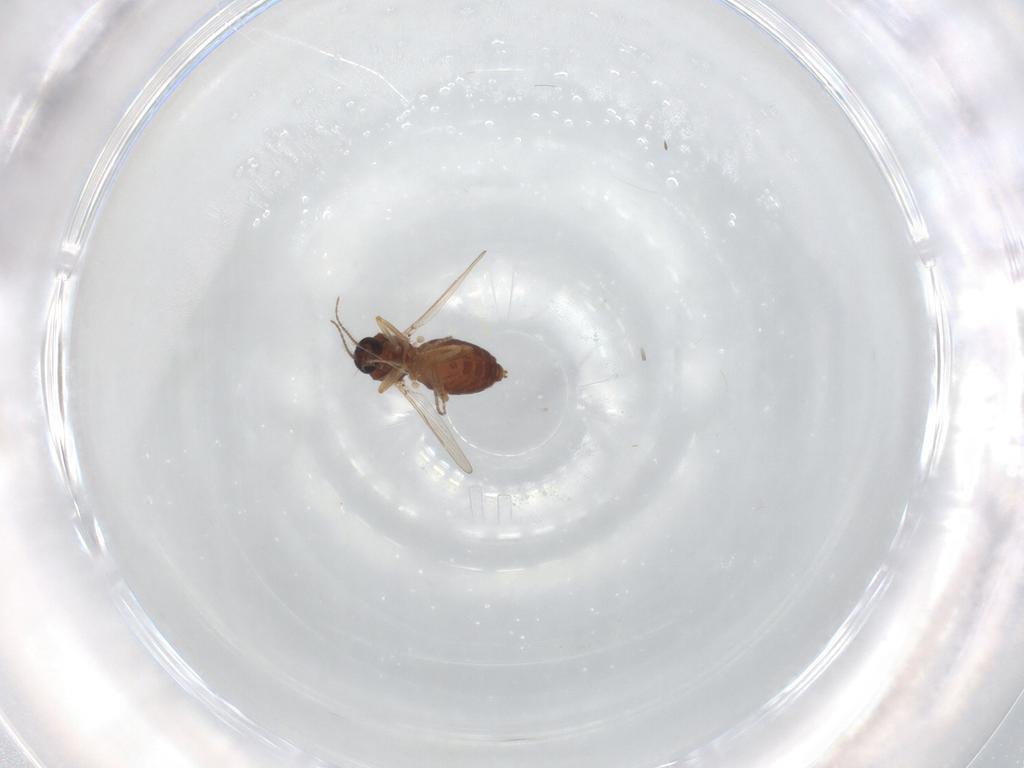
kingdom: Animalia
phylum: Arthropoda
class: Insecta
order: Diptera
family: Ceratopogonidae
